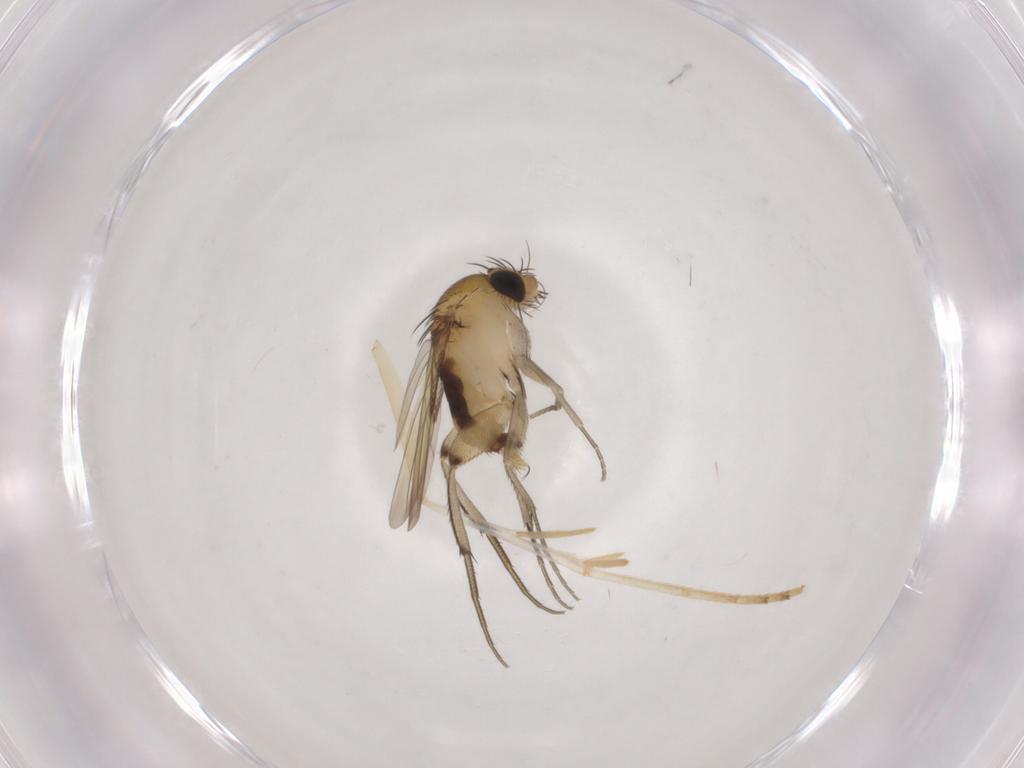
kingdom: Animalia
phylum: Arthropoda
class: Insecta
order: Diptera
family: Phoridae
